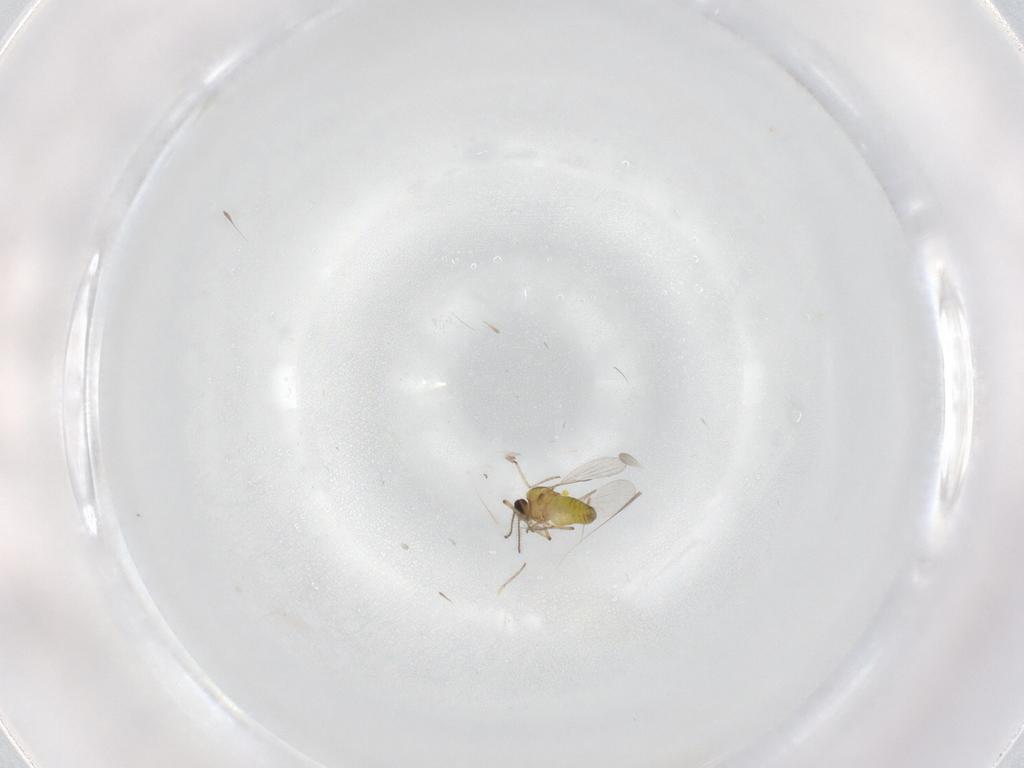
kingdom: Animalia
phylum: Arthropoda
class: Insecta
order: Diptera
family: Ceratopogonidae
